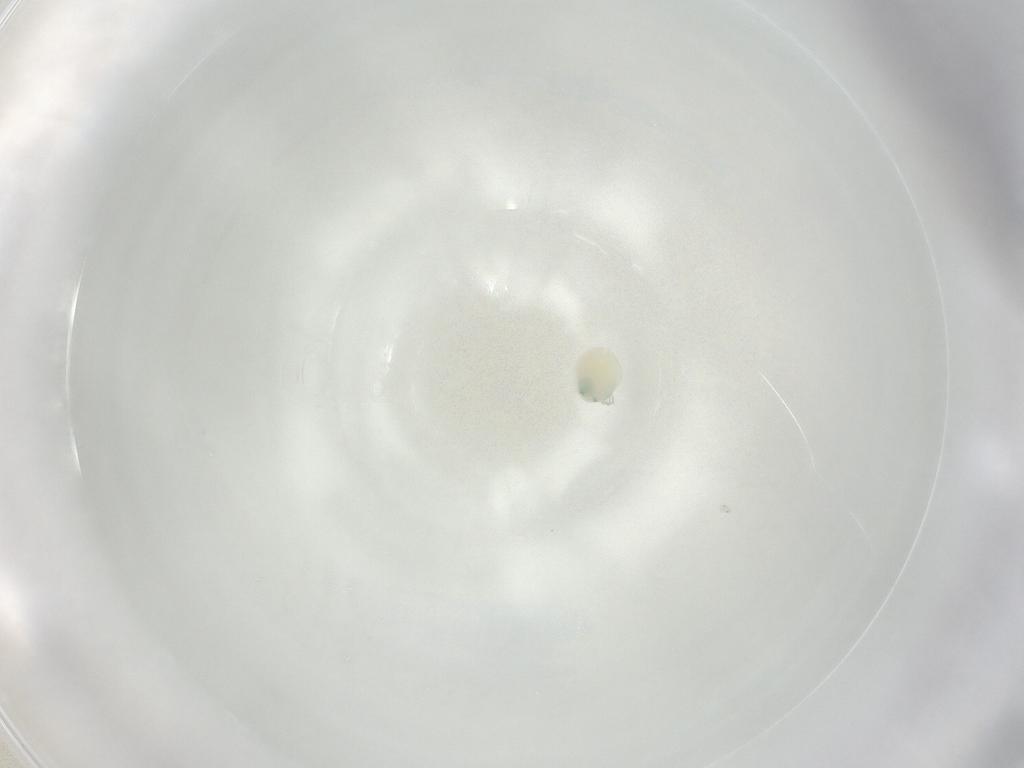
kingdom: Animalia
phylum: Arthropoda
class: Arachnida
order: Trombidiformes
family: Arrenuridae
